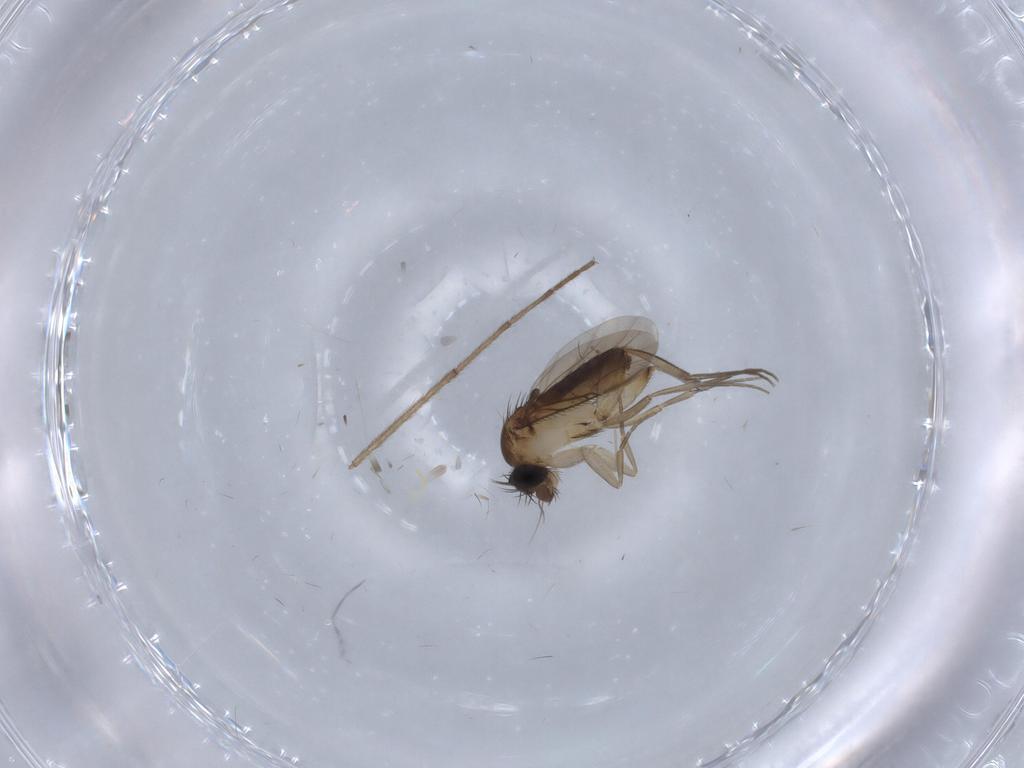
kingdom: Animalia
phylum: Arthropoda
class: Insecta
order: Diptera
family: Phoridae
